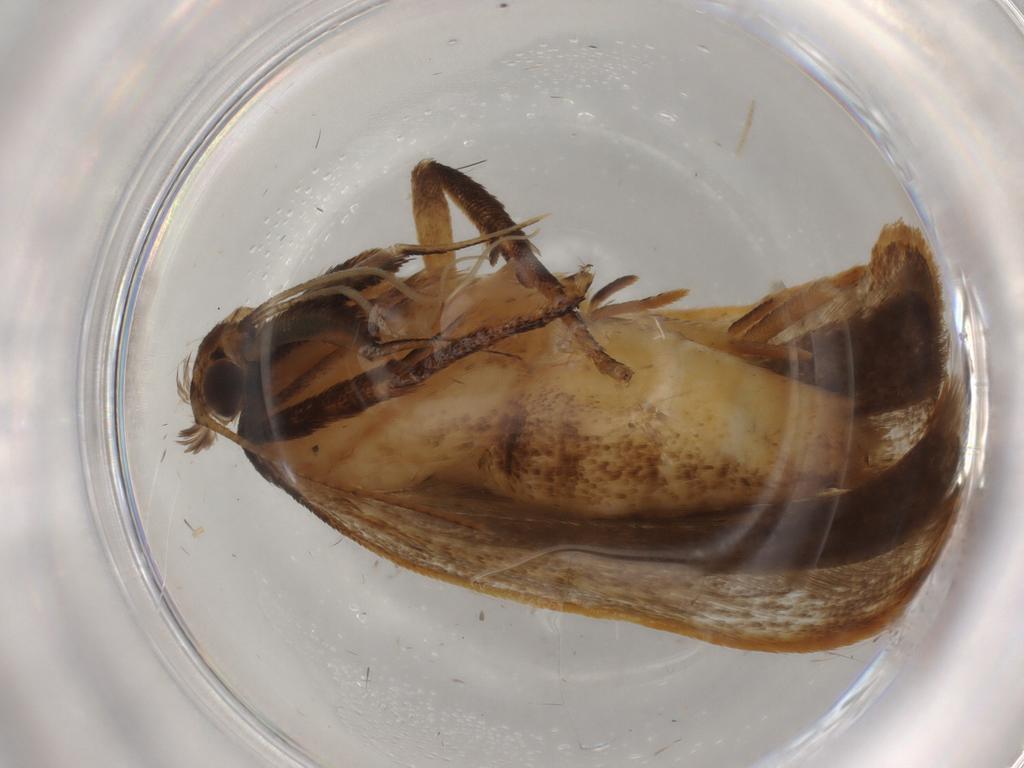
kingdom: Animalia
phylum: Arthropoda
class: Insecta
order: Lepidoptera
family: Gelechiidae
